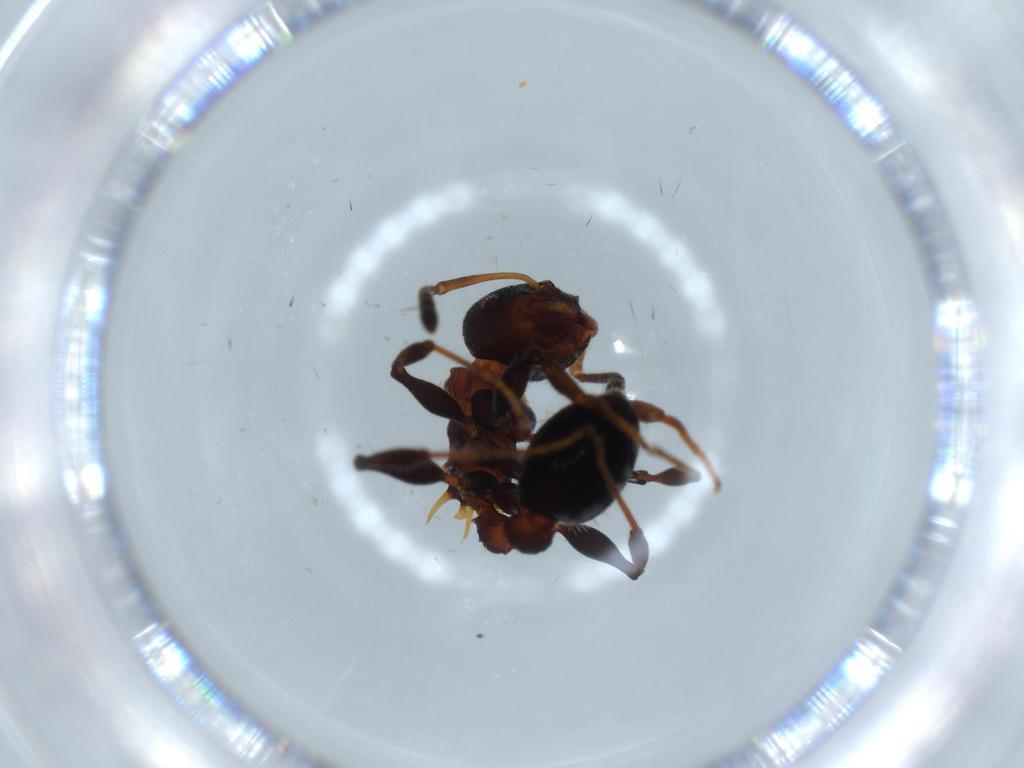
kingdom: Animalia
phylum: Arthropoda
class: Insecta
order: Hymenoptera
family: Formicidae
